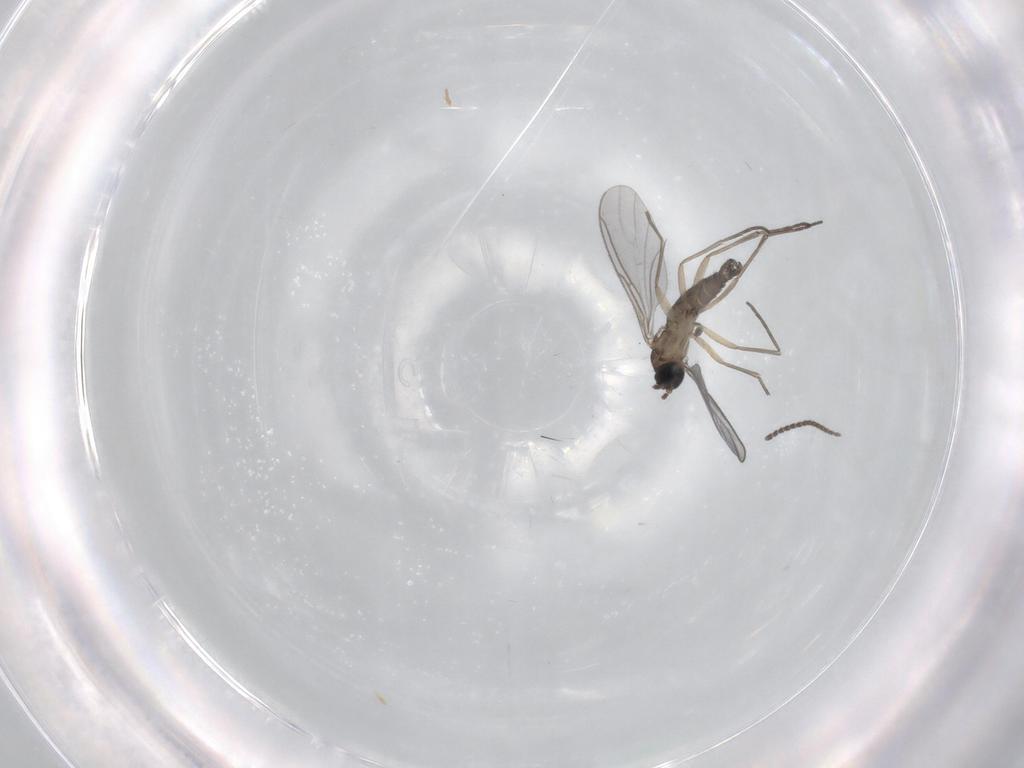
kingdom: Animalia
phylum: Arthropoda
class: Insecta
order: Diptera
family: Sciaridae
